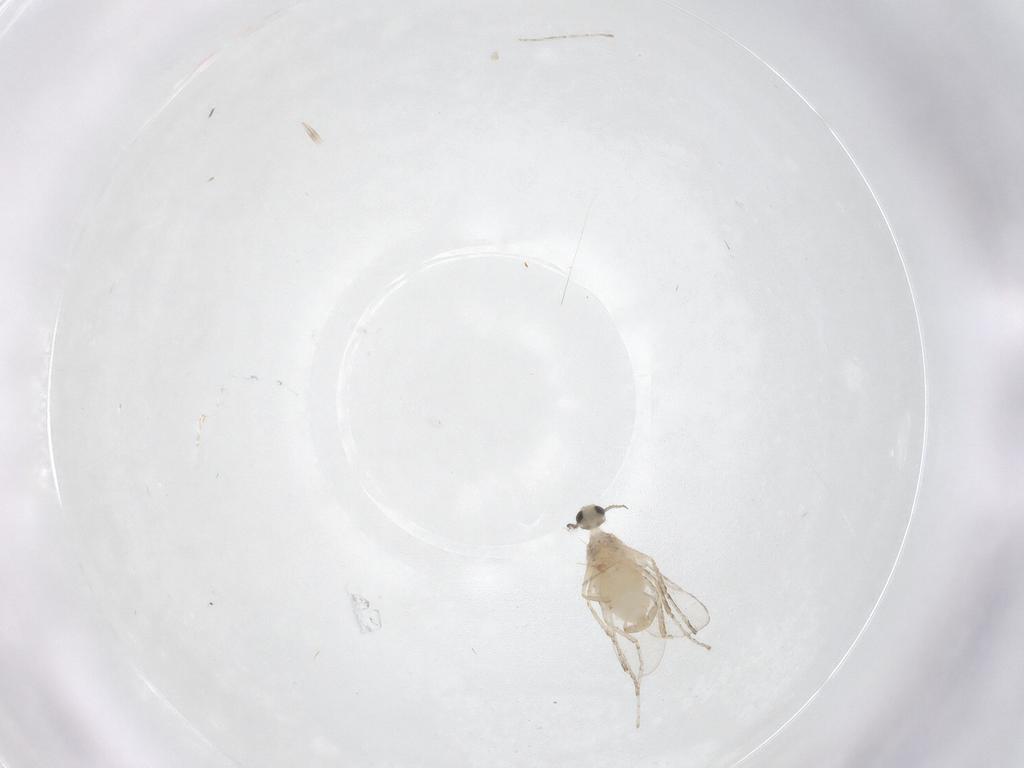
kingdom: Animalia
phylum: Arthropoda
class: Insecta
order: Diptera
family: Cecidomyiidae
